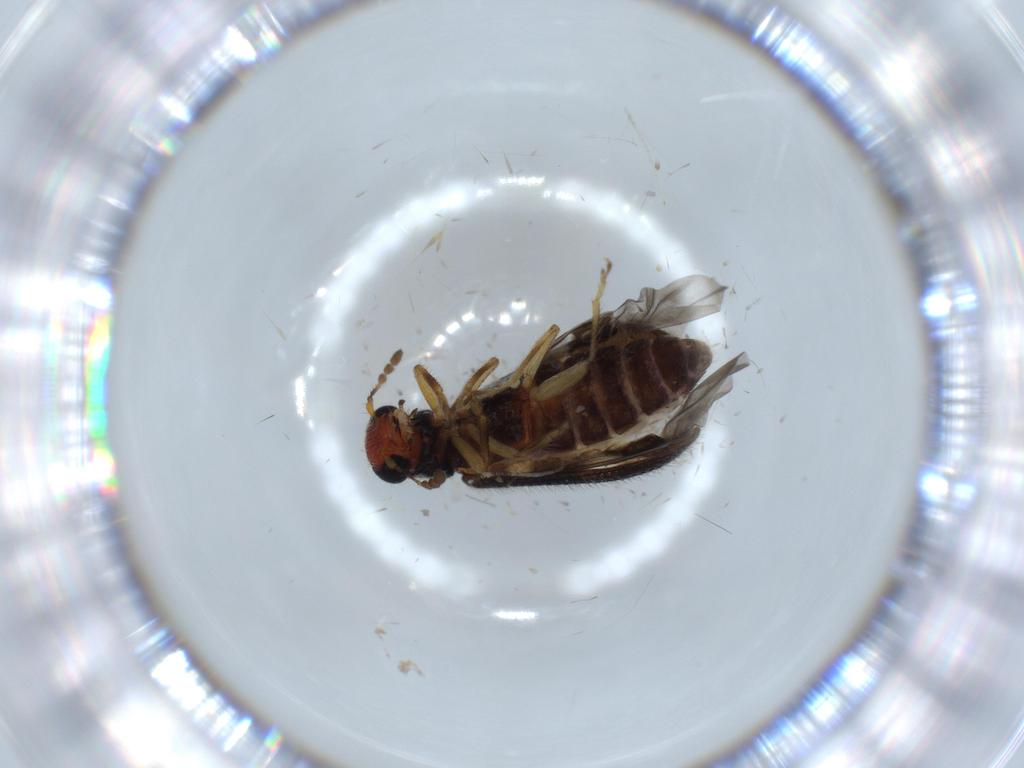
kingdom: Animalia
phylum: Arthropoda
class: Insecta
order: Coleoptera
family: Chrysomelidae
